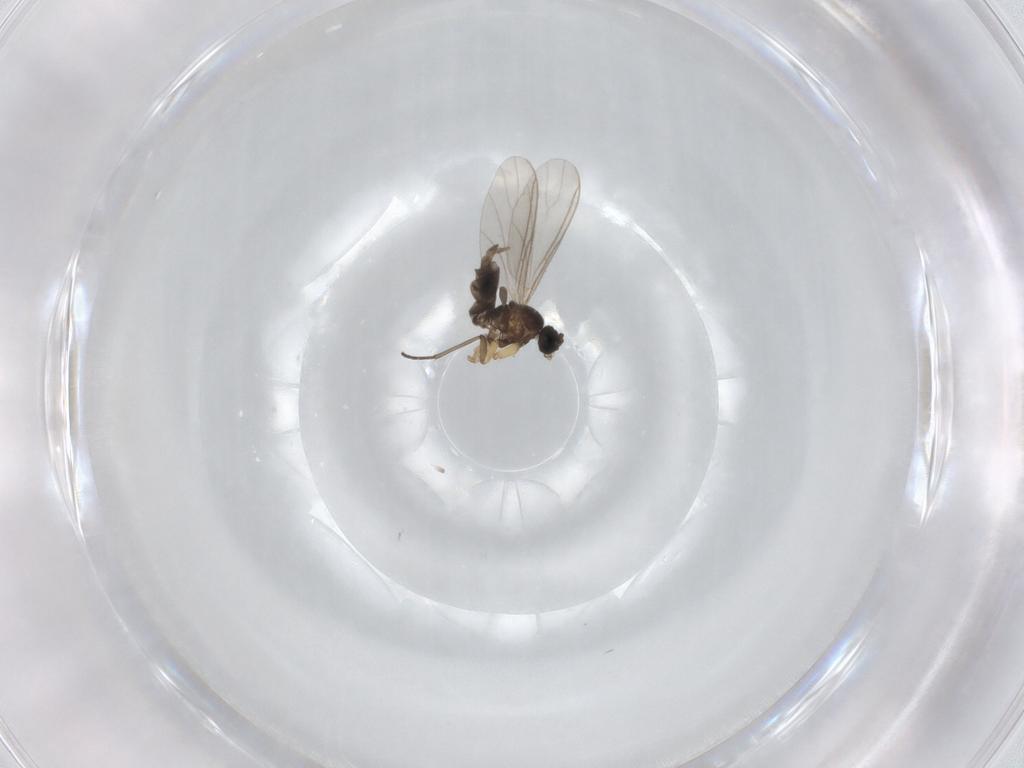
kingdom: Animalia
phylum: Arthropoda
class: Insecta
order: Diptera
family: Sciaridae
